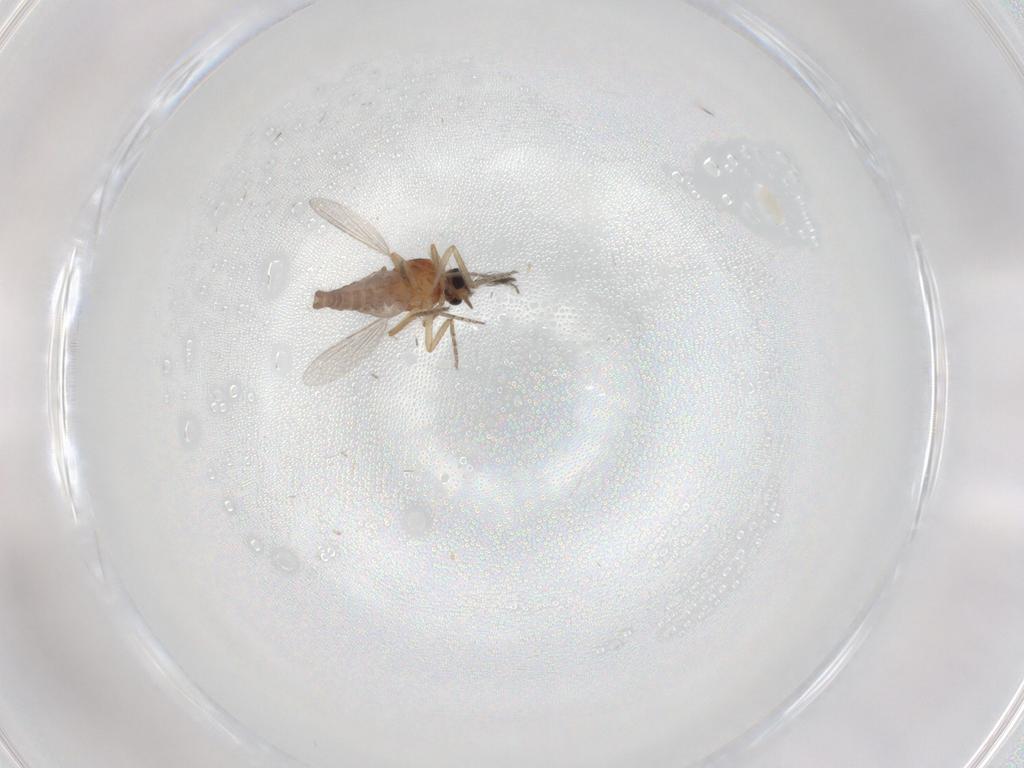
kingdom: Animalia
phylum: Arthropoda
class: Insecta
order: Diptera
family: Ceratopogonidae
